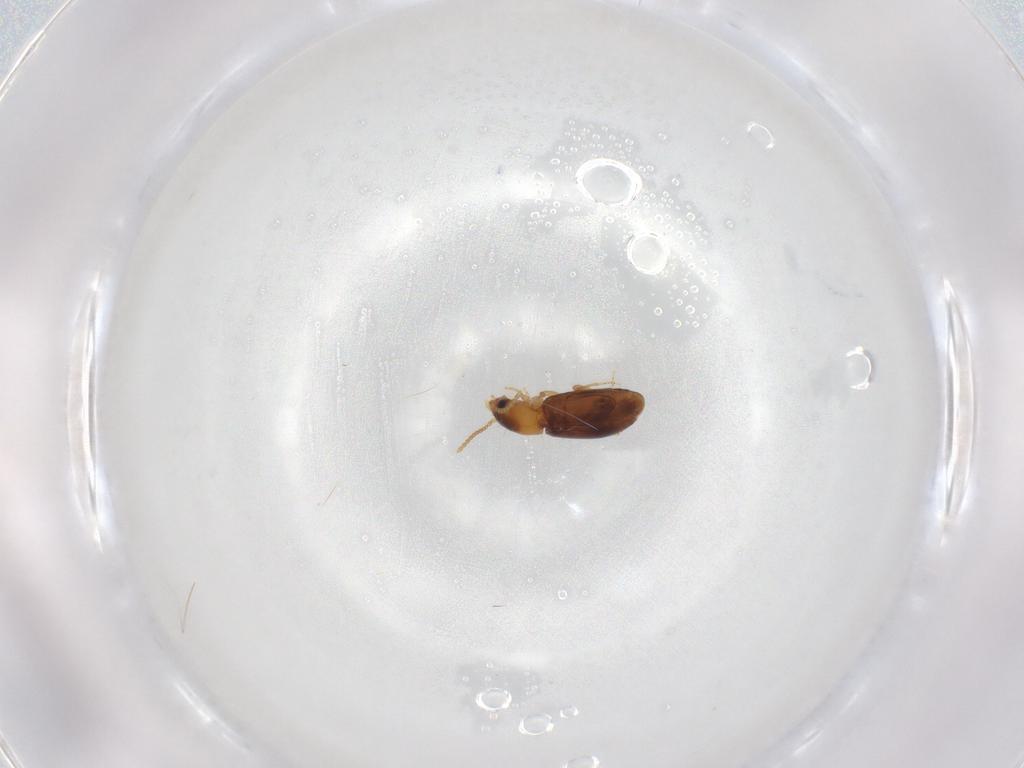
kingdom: Animalia
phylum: Arthropoda
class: Insecta
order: Coleoptera
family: Carabidae
